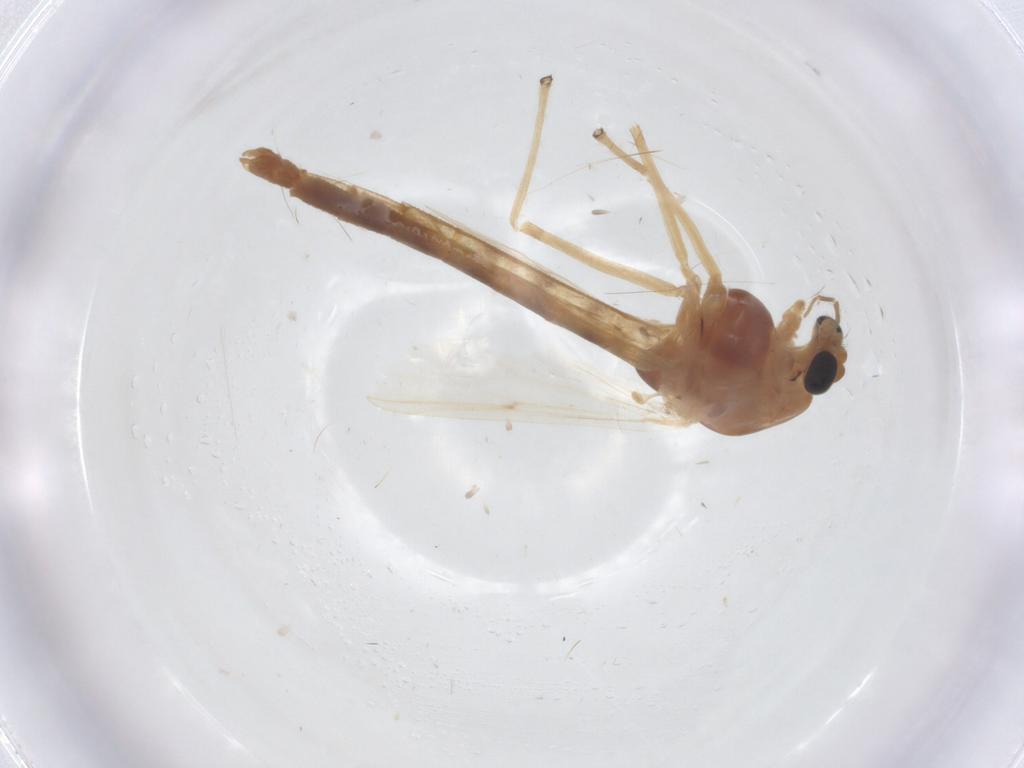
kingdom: Animalia
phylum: Arthropoda
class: Insecta
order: Diptera
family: Chironomidae
